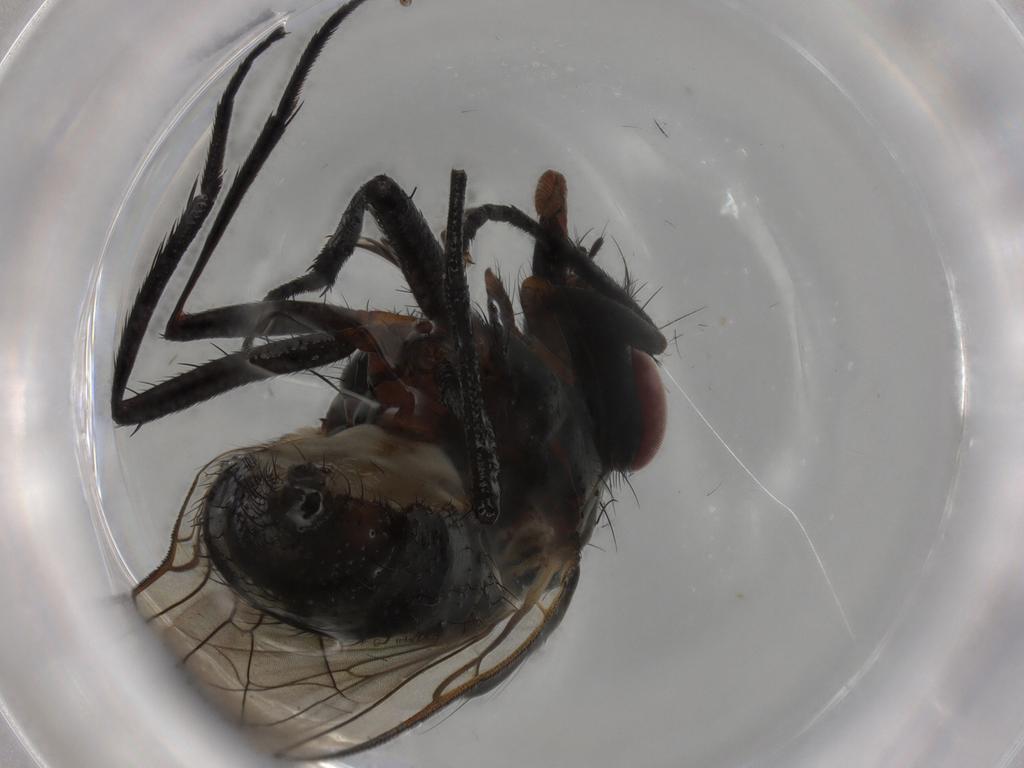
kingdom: Animalia
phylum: Arthropoda
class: Insecta
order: Diptera
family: Anthomyiidae
